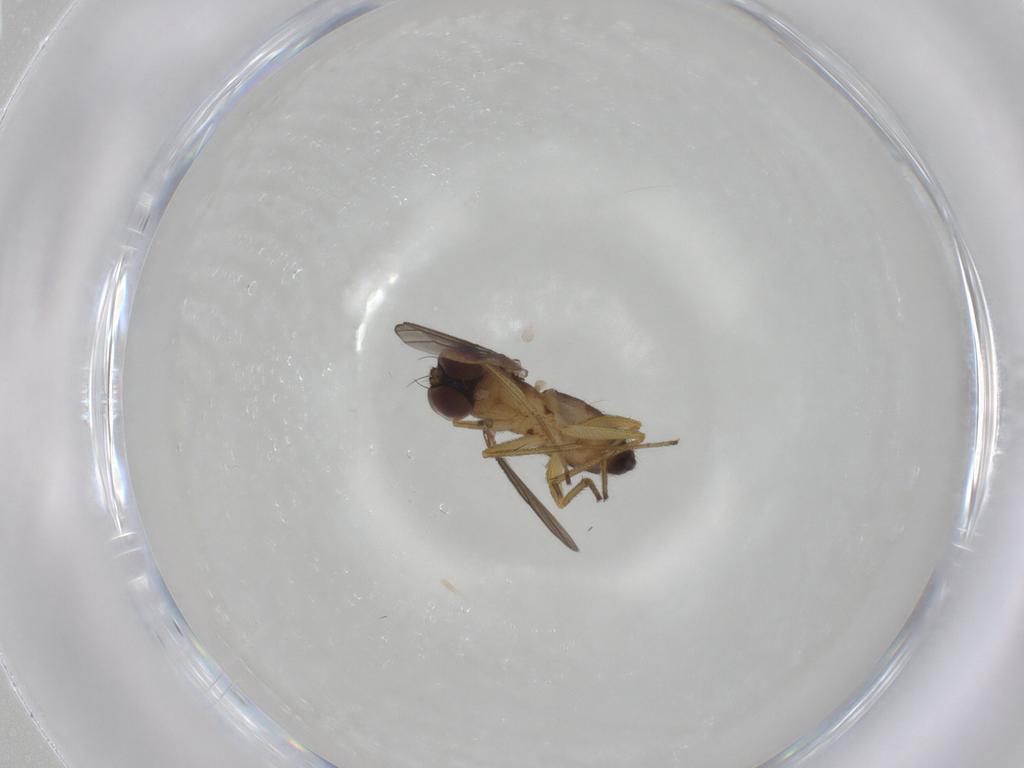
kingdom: Animalia
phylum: Arthropoda
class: Insecta
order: Diptera
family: Dolichopodidae
